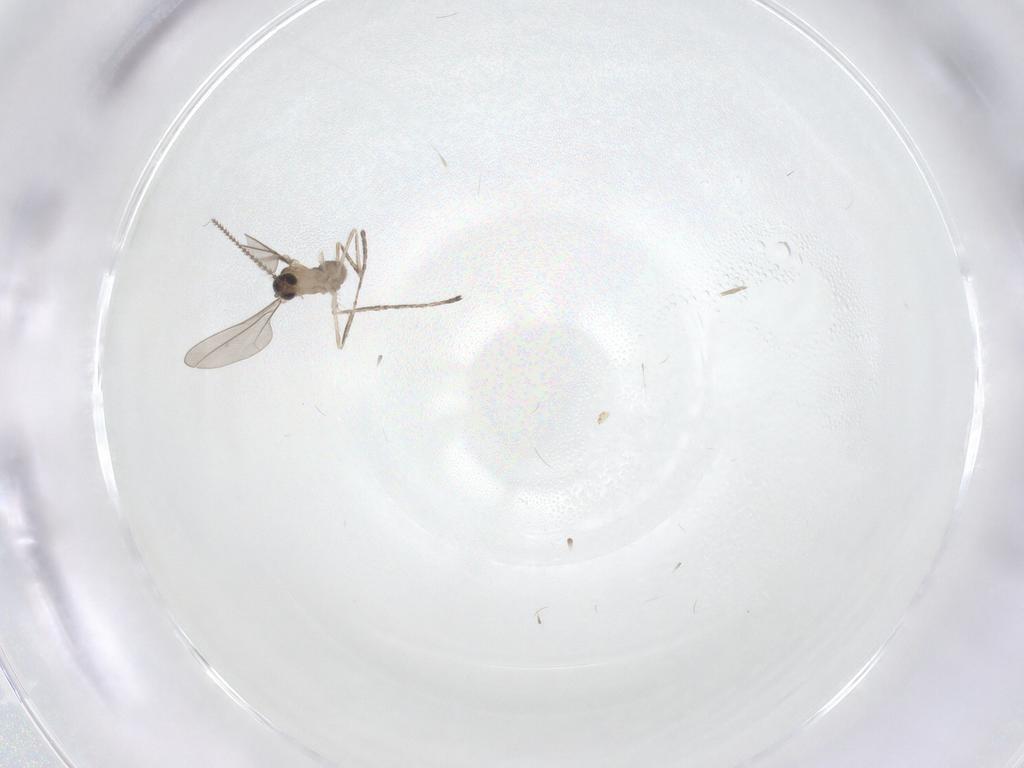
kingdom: Animalia
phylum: Arthropoda
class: Insecta
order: Diptera
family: Cecidomyiidae
